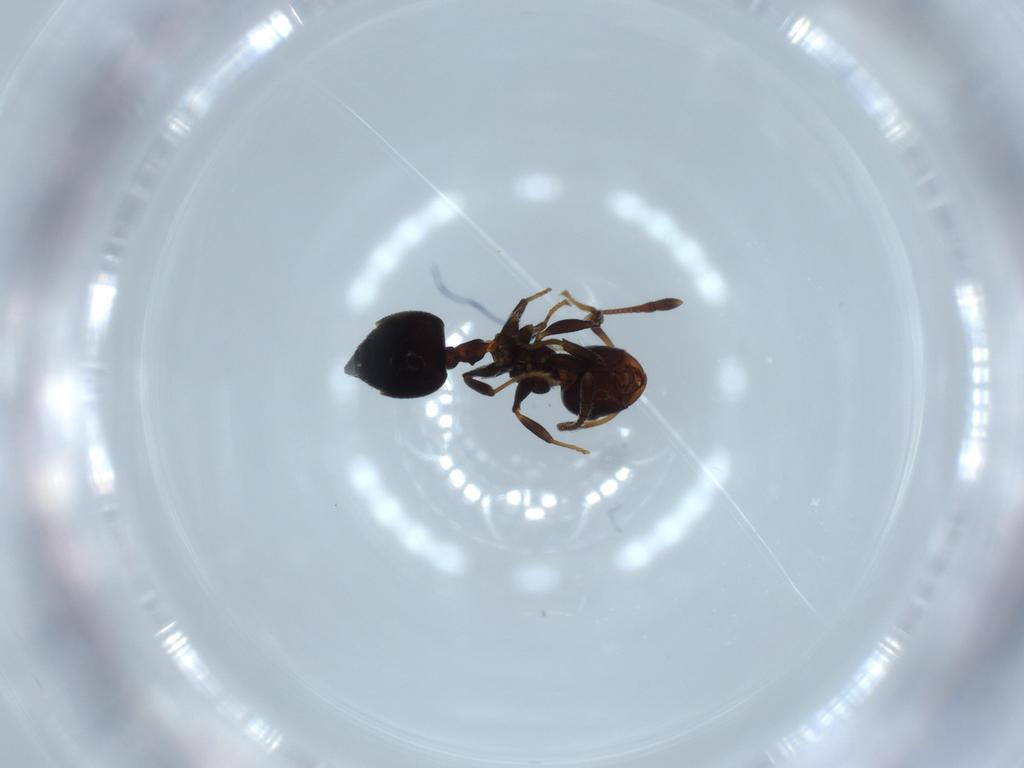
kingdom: Animalia
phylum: Arthropoda
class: Insecta
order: Hymenoptera
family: Formicidae
